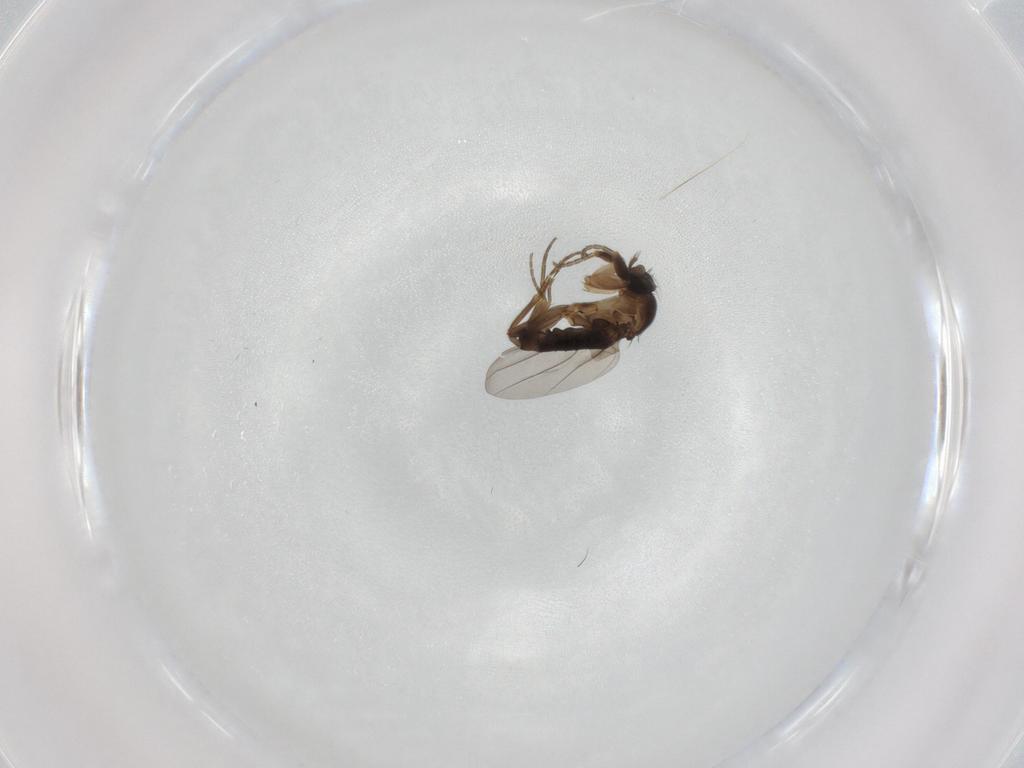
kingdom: Animalia
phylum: Arthropoda
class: Insecta
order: Diptera
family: Phoridae
